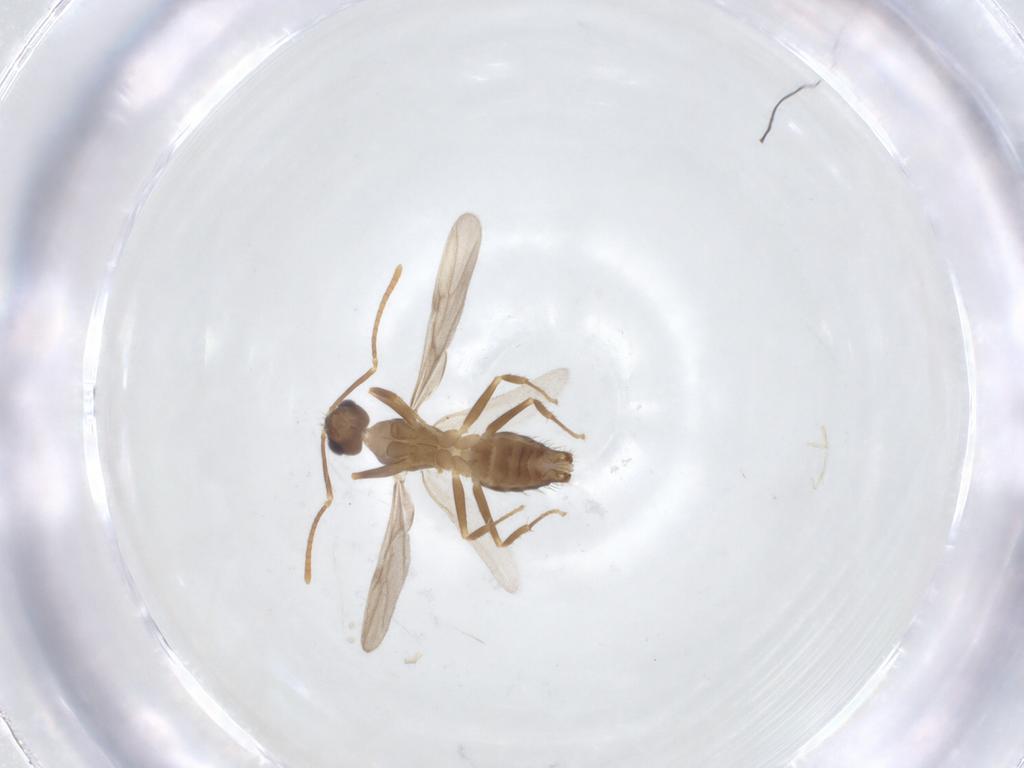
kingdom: Animalia
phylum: Arthropoda
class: Insecta
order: Hymenoptera
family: Formicidae
